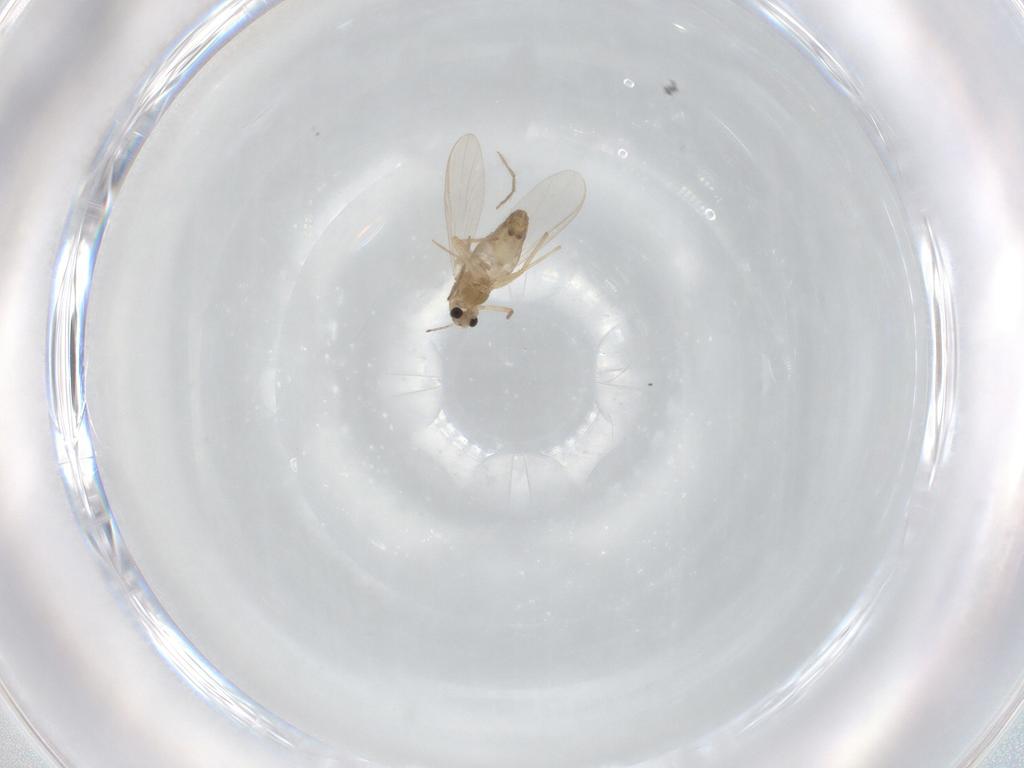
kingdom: Animalia
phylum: Arthropoda
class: Insecta
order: Diptera
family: Chironomidae
